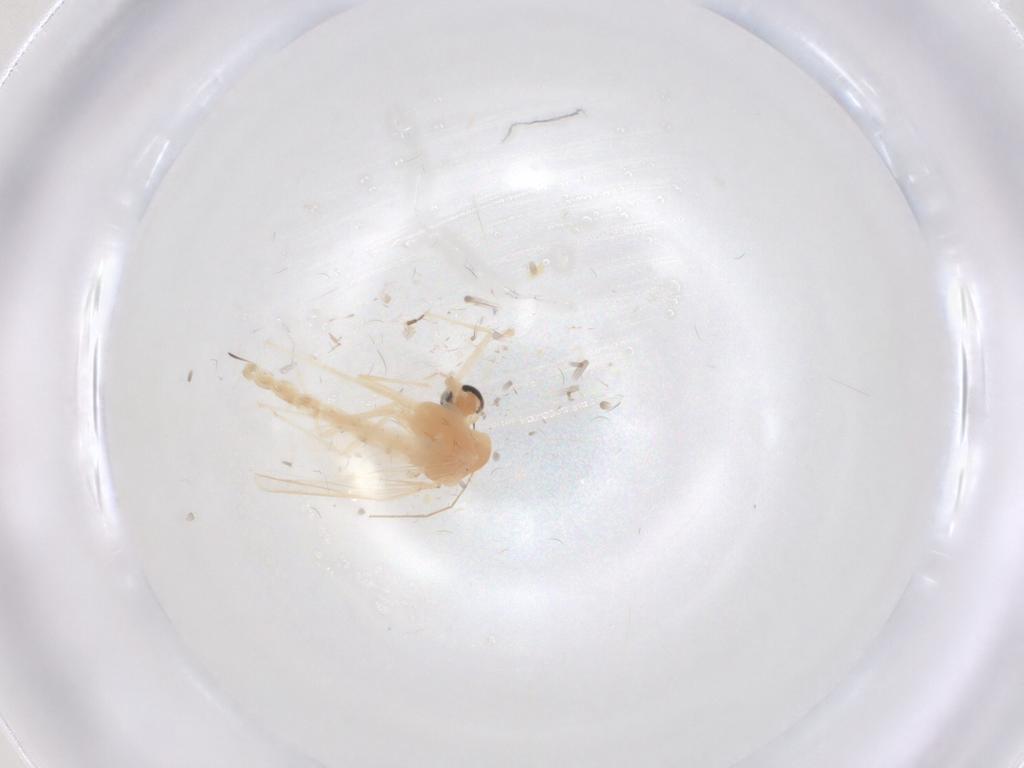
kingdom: Animalia
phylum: Arthropoda
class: Insecta
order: Diptera
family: Chironomidae
